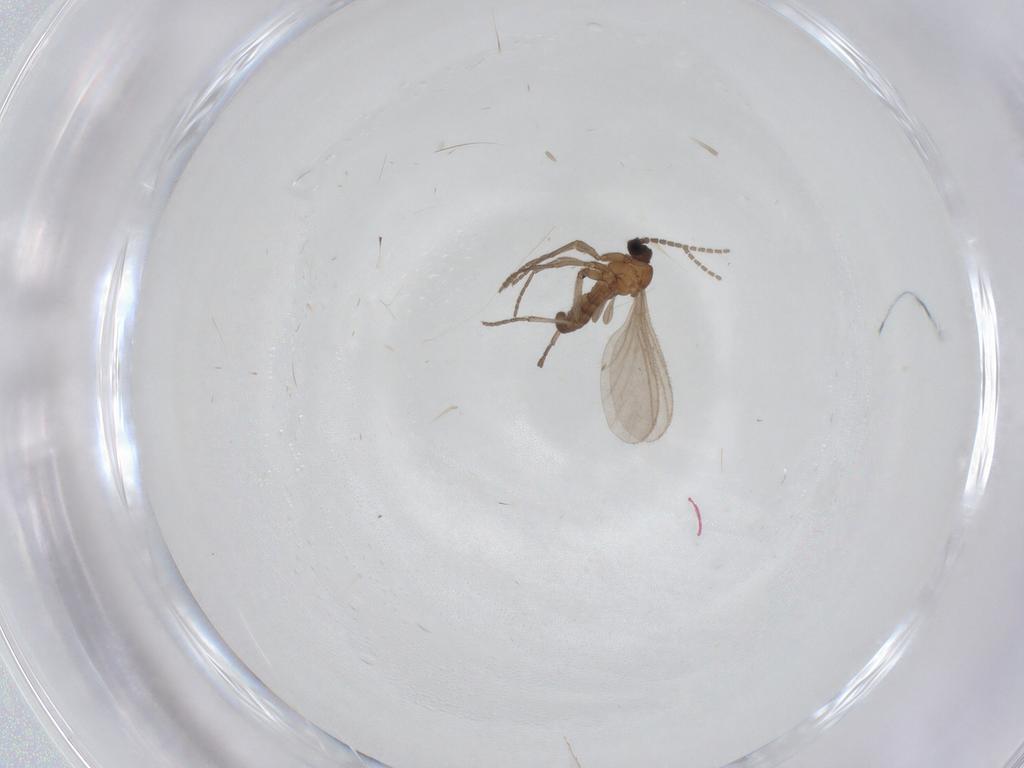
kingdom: Animalia
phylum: Arthropoda
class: Insecta
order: Diptera
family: Sciaridae
